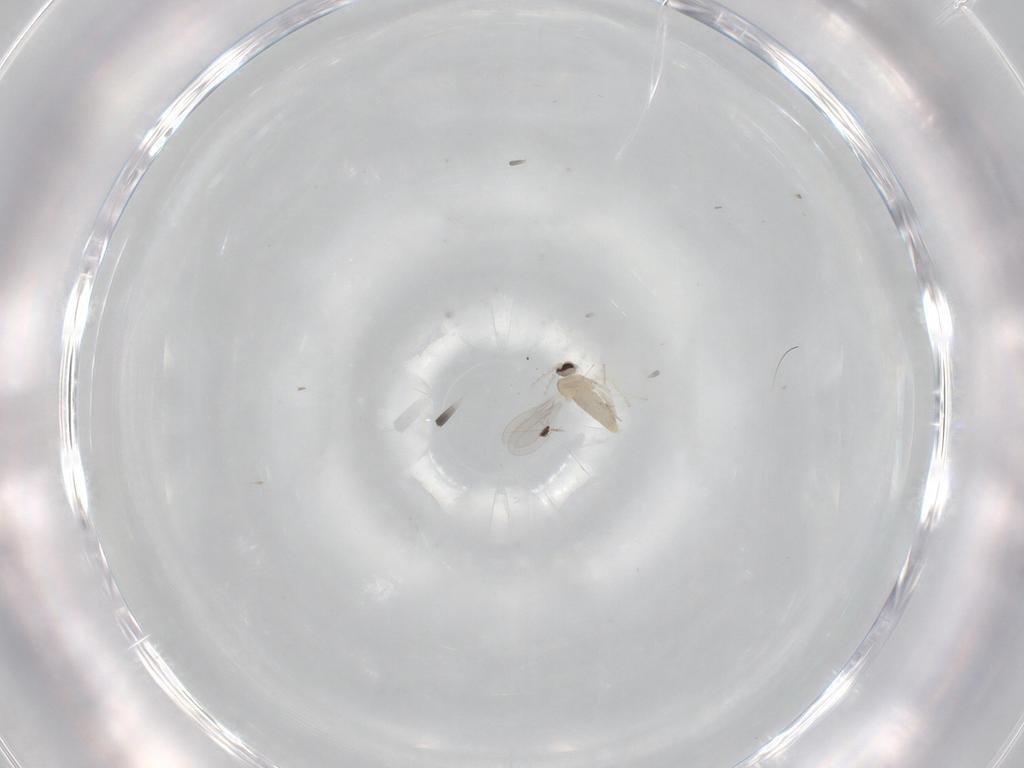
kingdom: Animalia
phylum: Arthropoda
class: Insecta
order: Diptera
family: Cecidomyiidae
